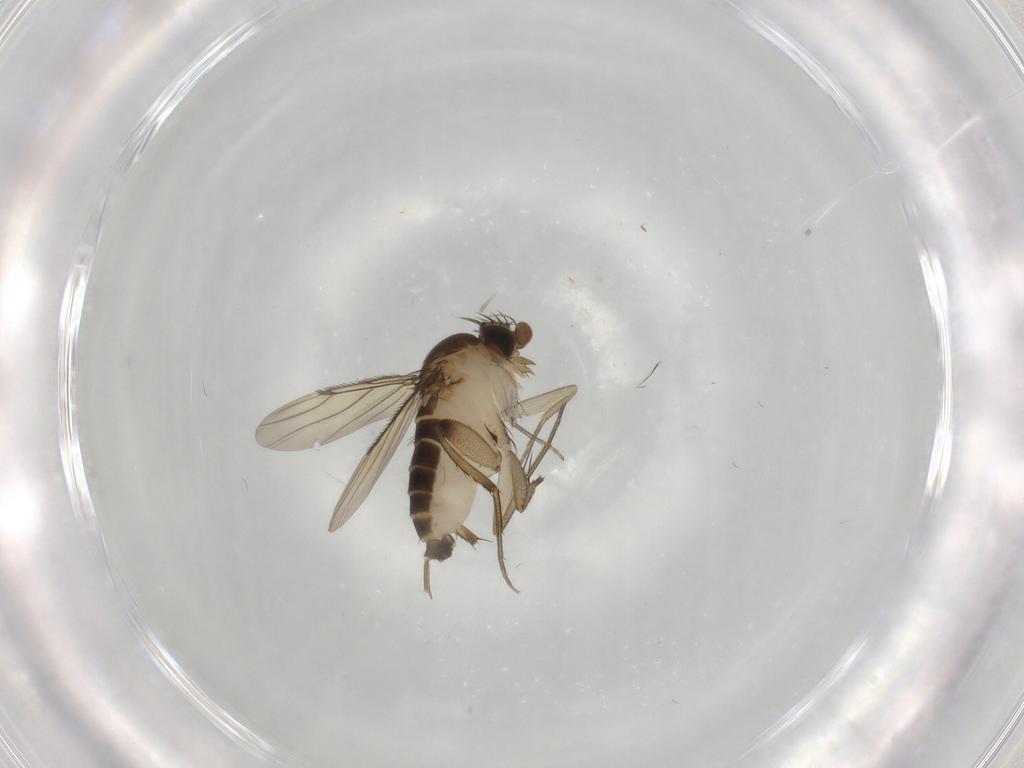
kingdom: Animalia
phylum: Arthropoda
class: Insecta
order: Diptera
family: Phoridae
